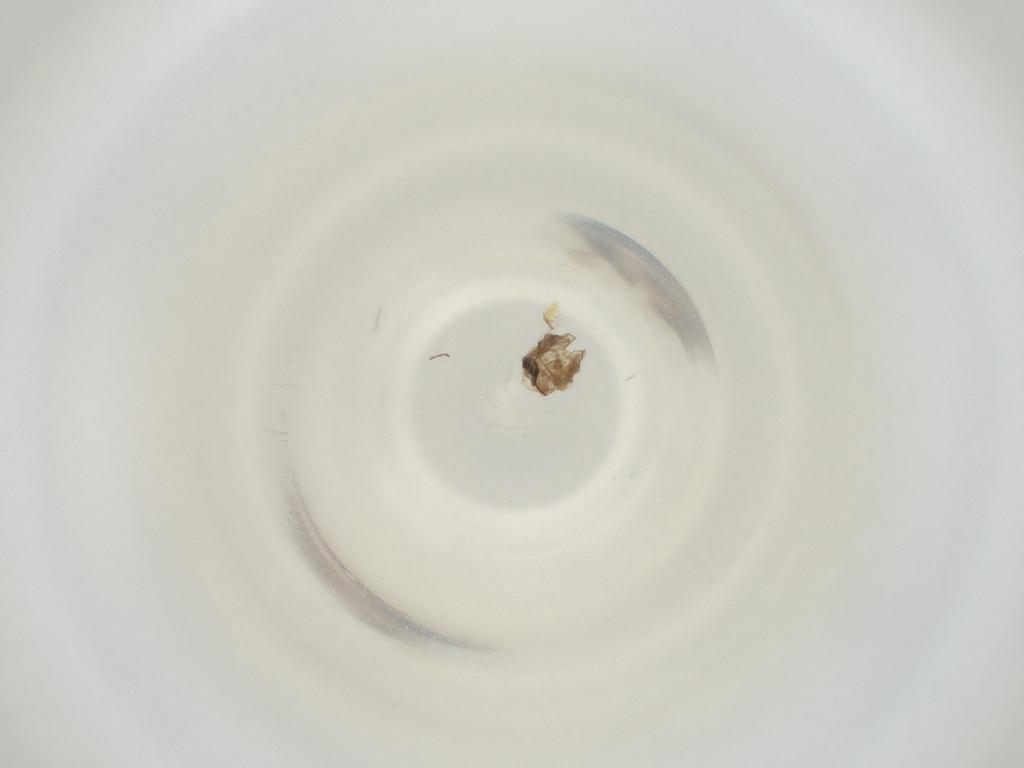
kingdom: Animalia
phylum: Arthropoda
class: Insecta
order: Diptera
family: Cecidomyiidae
